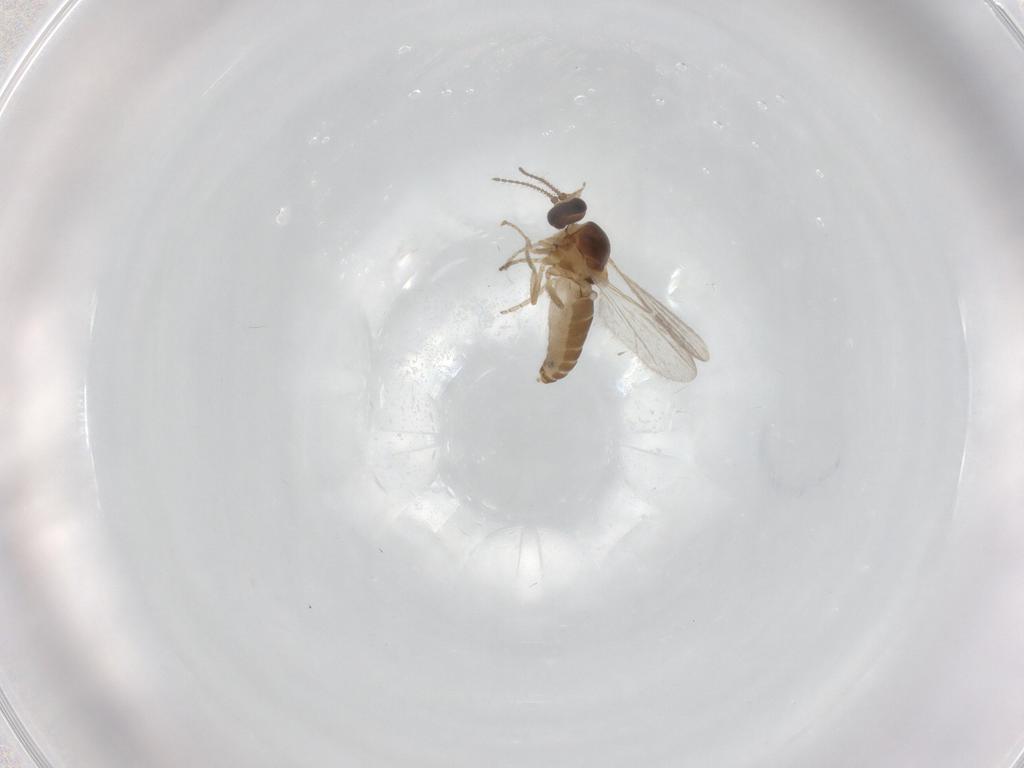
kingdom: Animalia
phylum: Arthropoda
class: Insecta
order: Diptera
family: Ceratopogonidae
